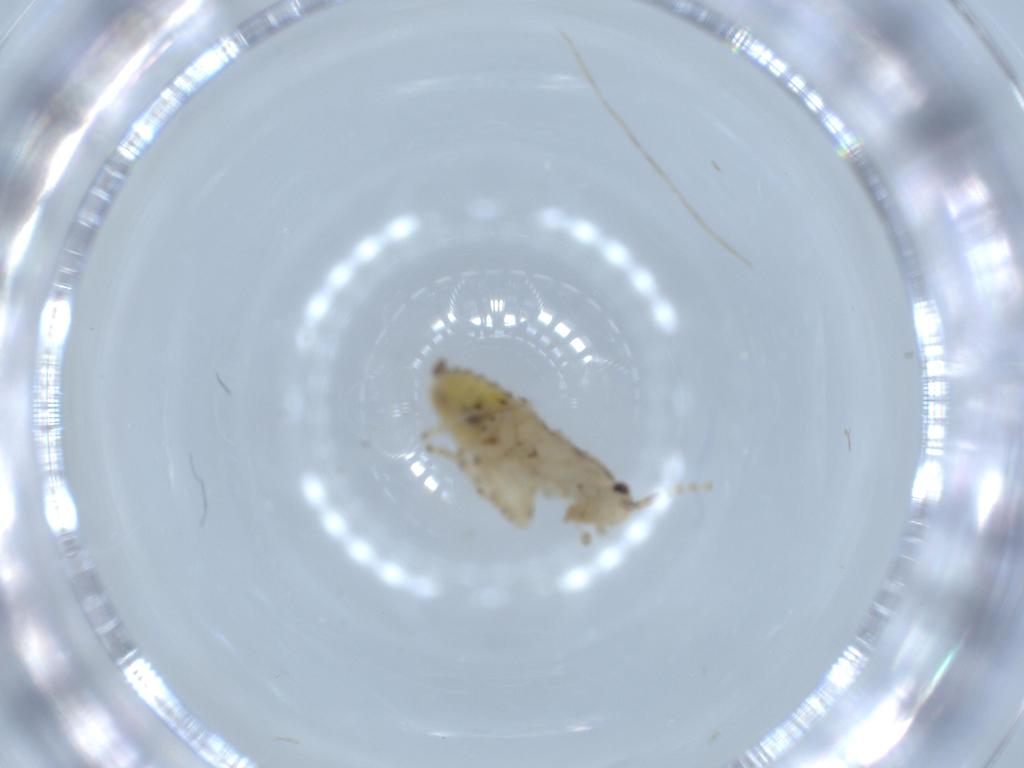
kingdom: Animalia
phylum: Arthropoda
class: Insecta
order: Blattodea
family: Ectobiidae
